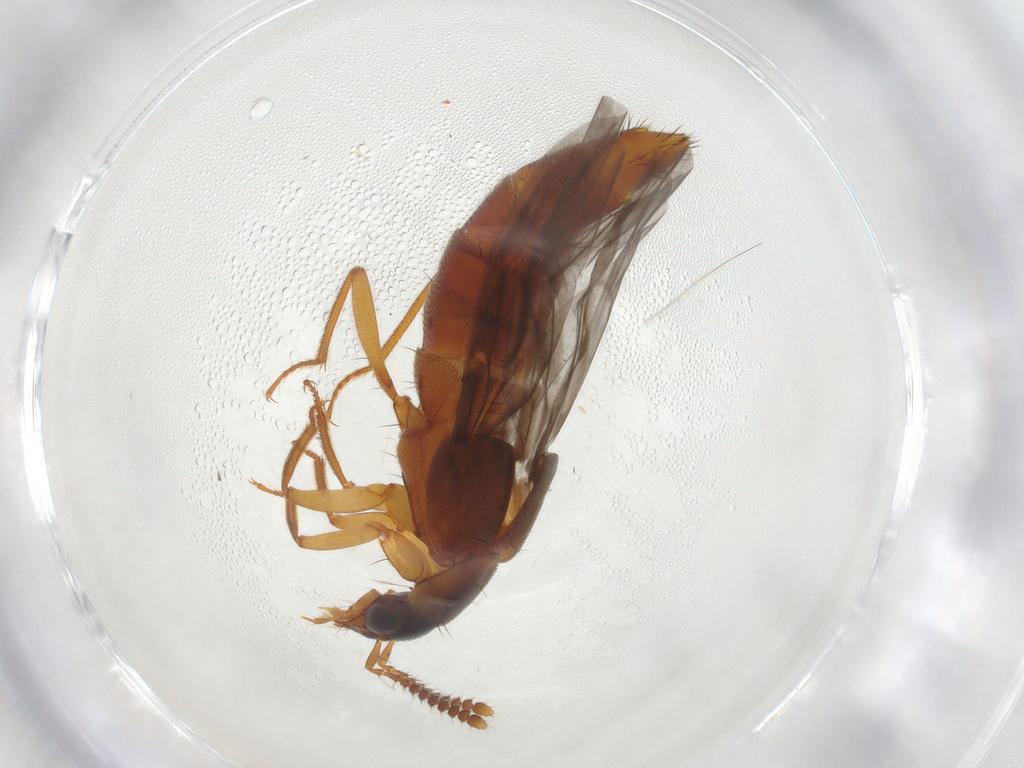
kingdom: Animalia
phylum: Arthropoda
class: Insecta
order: Coleoptera
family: Staphylinidae
